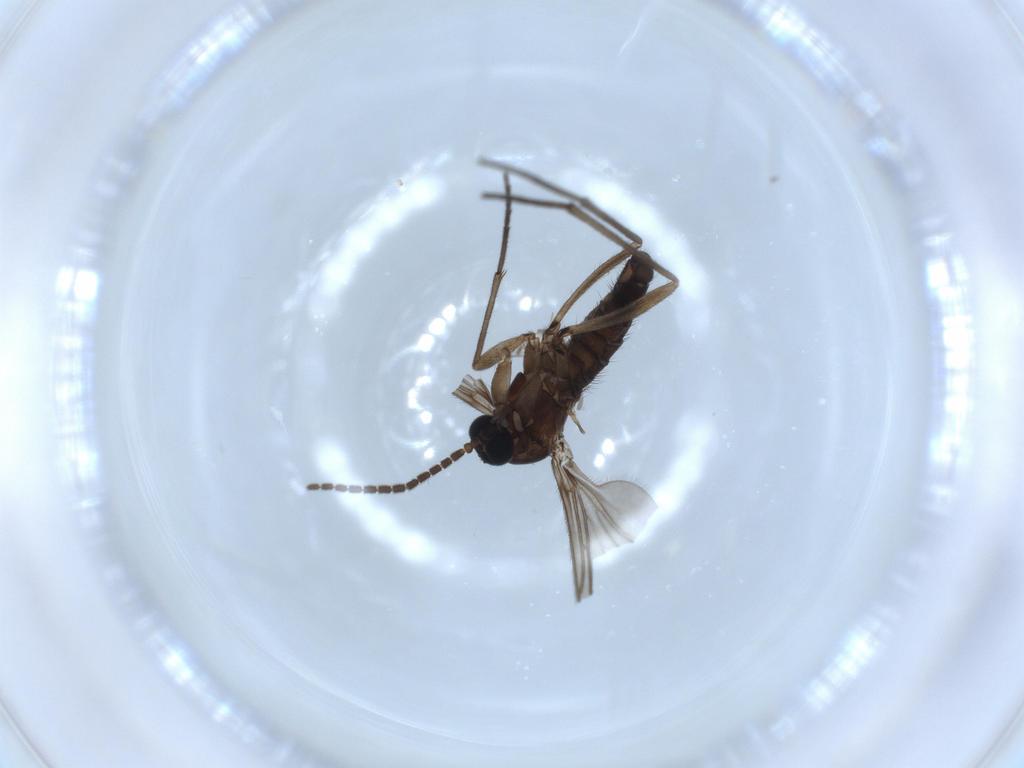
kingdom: Animalia
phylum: Arthropoda
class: Insecta
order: Diptera
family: Sciaridae
